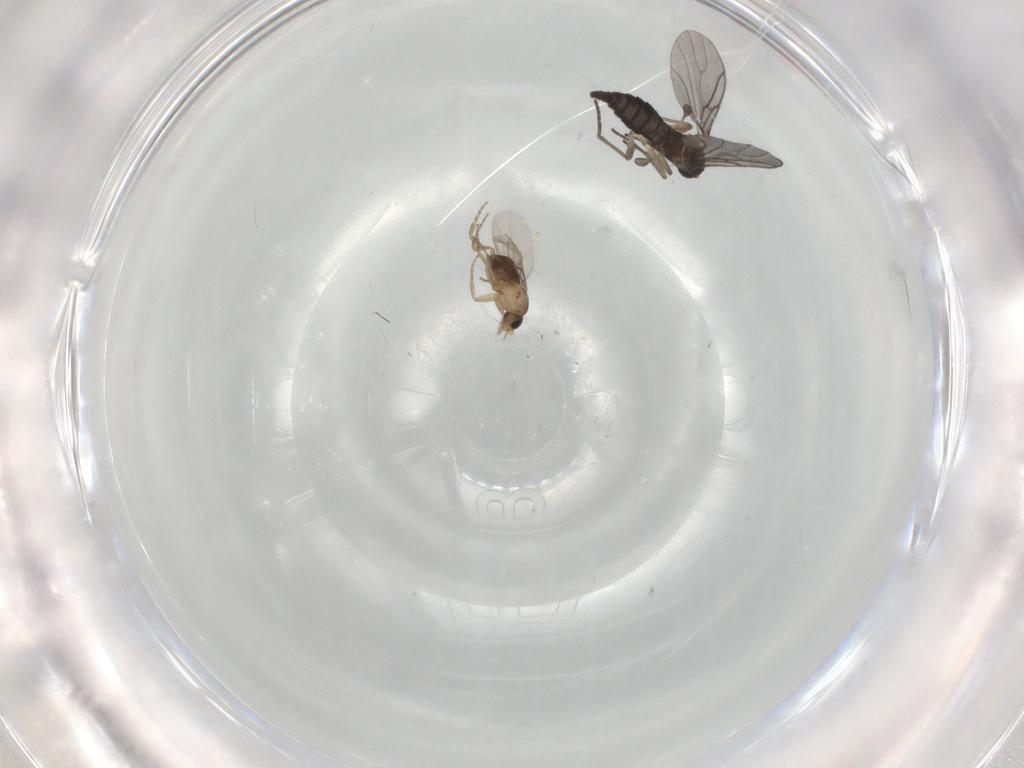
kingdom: Animalia
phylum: Arthropoda
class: Insecta
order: Diptera
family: Sciaridae
